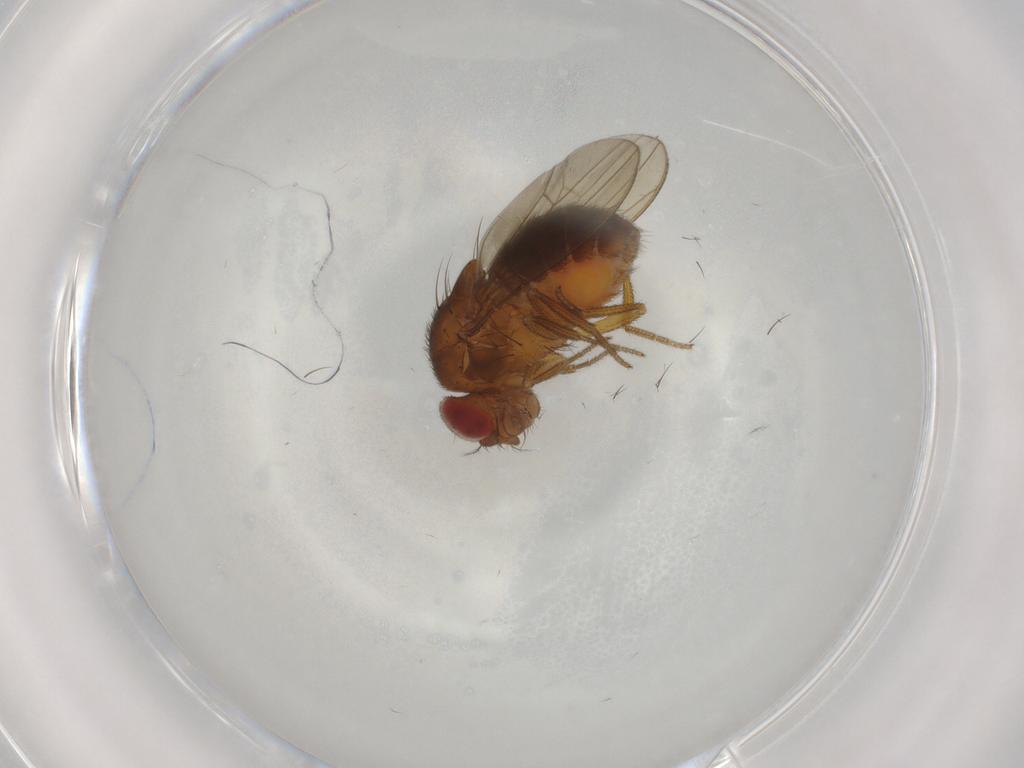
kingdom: Animalia
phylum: Arthropoda
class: Insecta
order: Diptera
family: Drosophilidae
